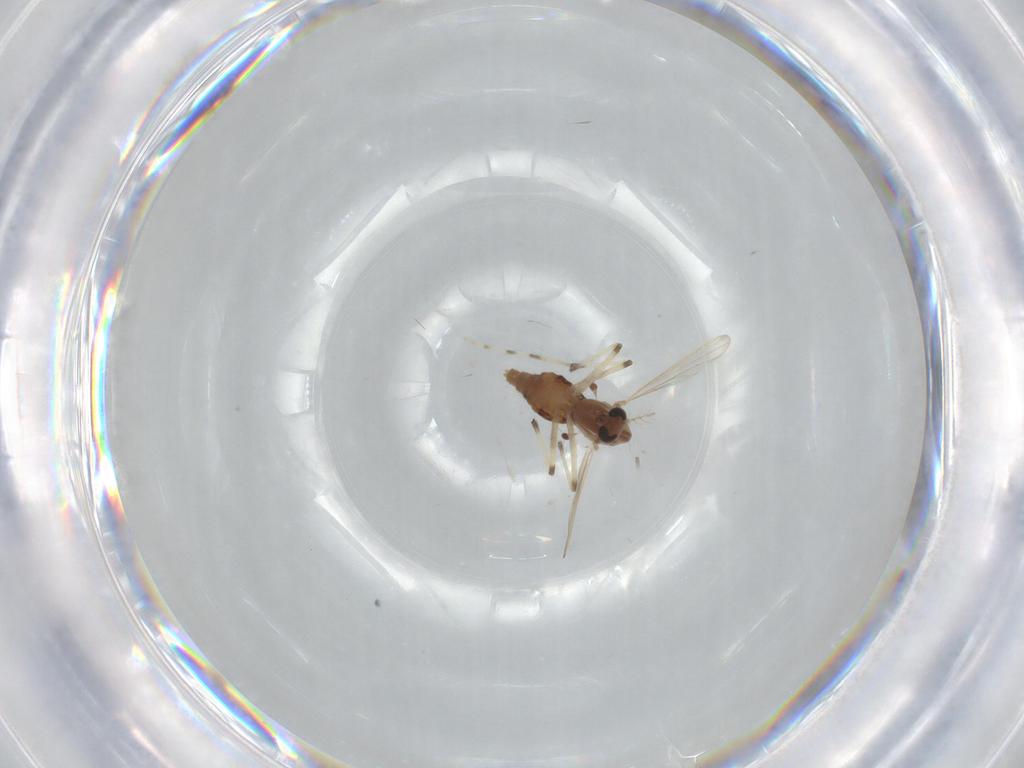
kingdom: Animalia
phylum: Arthropoda
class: Insecta
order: Diptera
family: Chironomidae
